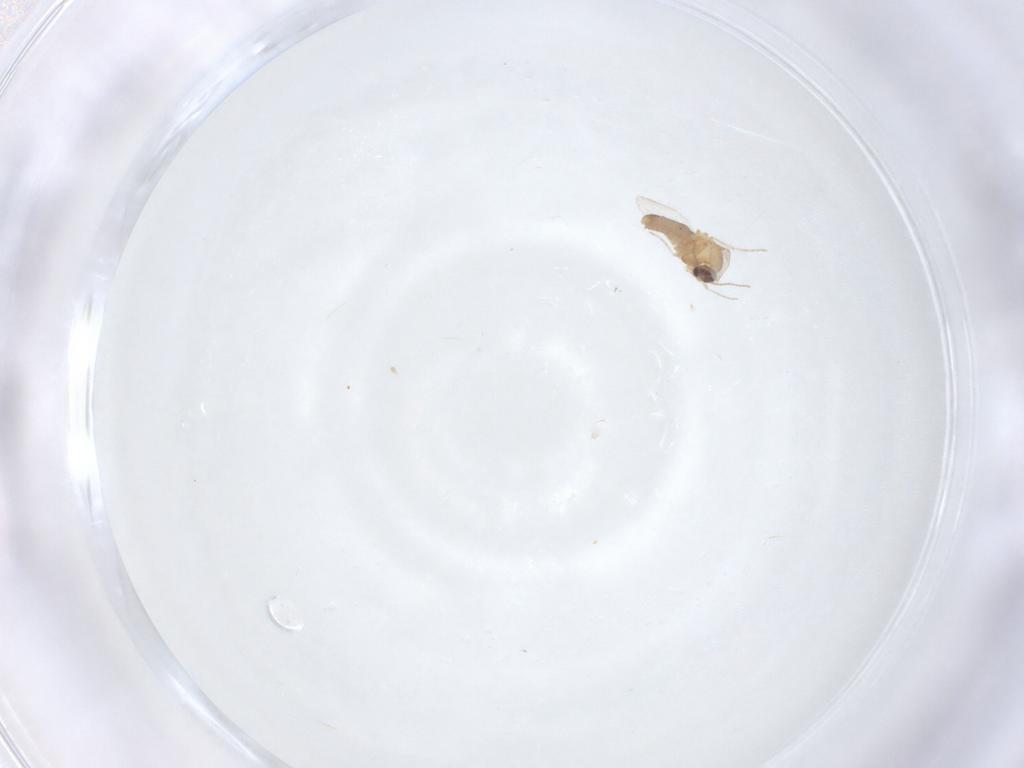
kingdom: Animalia
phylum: Arthropoda
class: Insecta
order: Diptera
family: Ceratopogonidae
